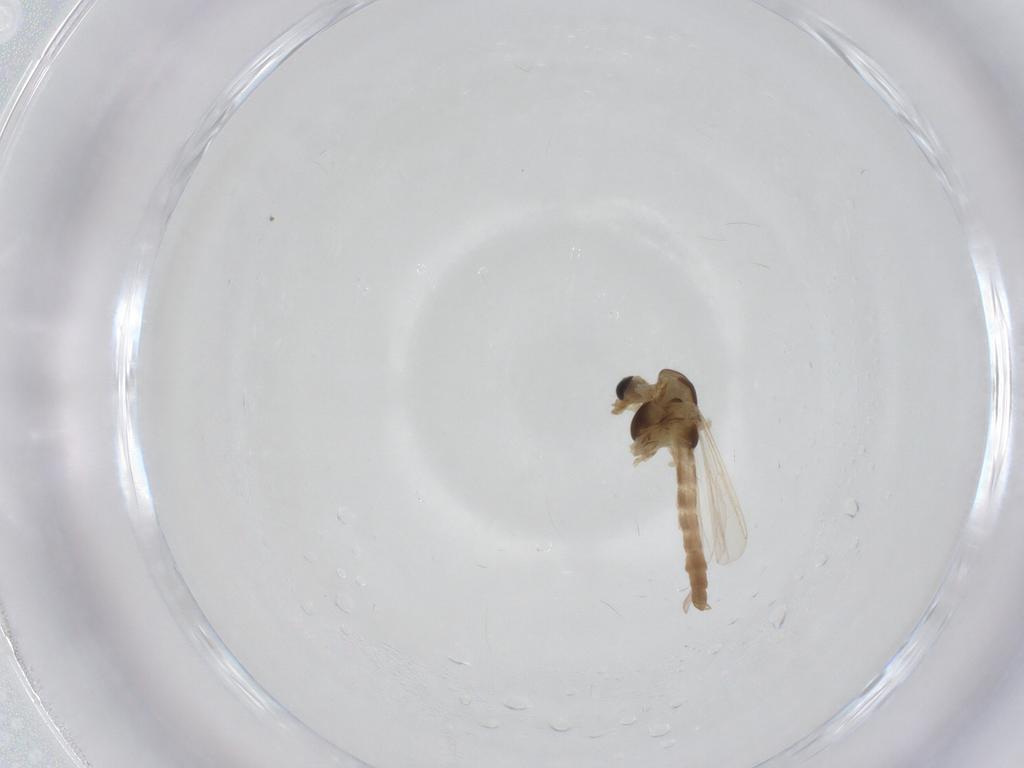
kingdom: Animalia
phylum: Arthropoda
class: Insecta
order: Diptera
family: Chironomidae
